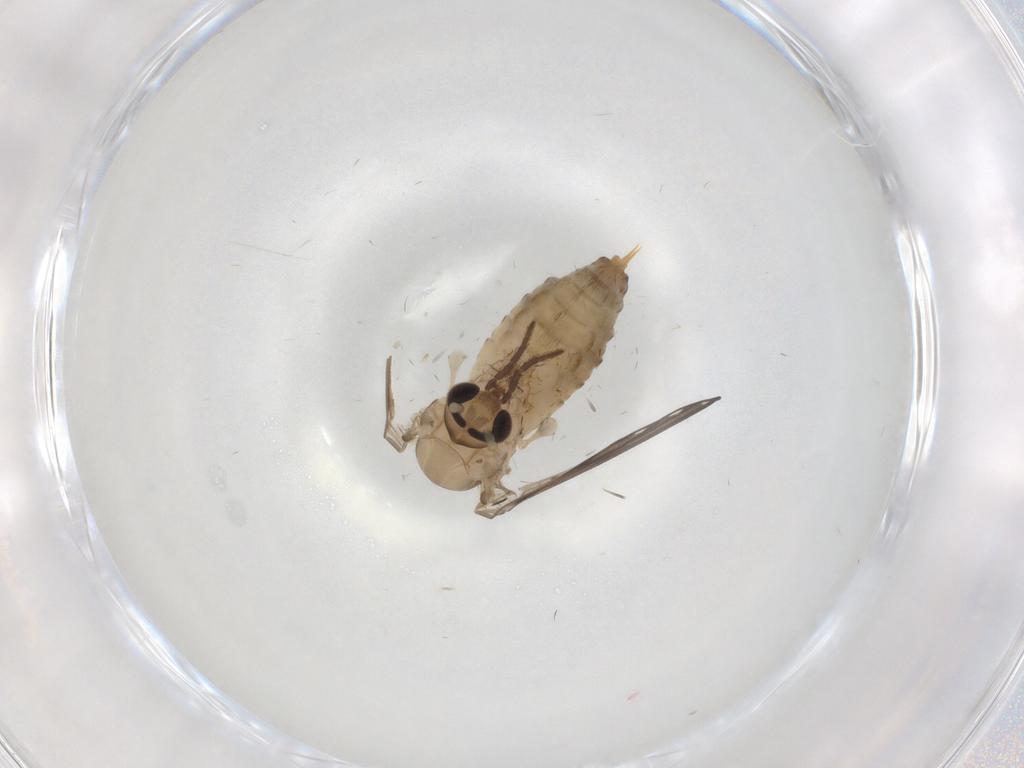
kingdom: Animalia
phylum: Arthropoda
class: Insecta
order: Diptera
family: Psychodidae
